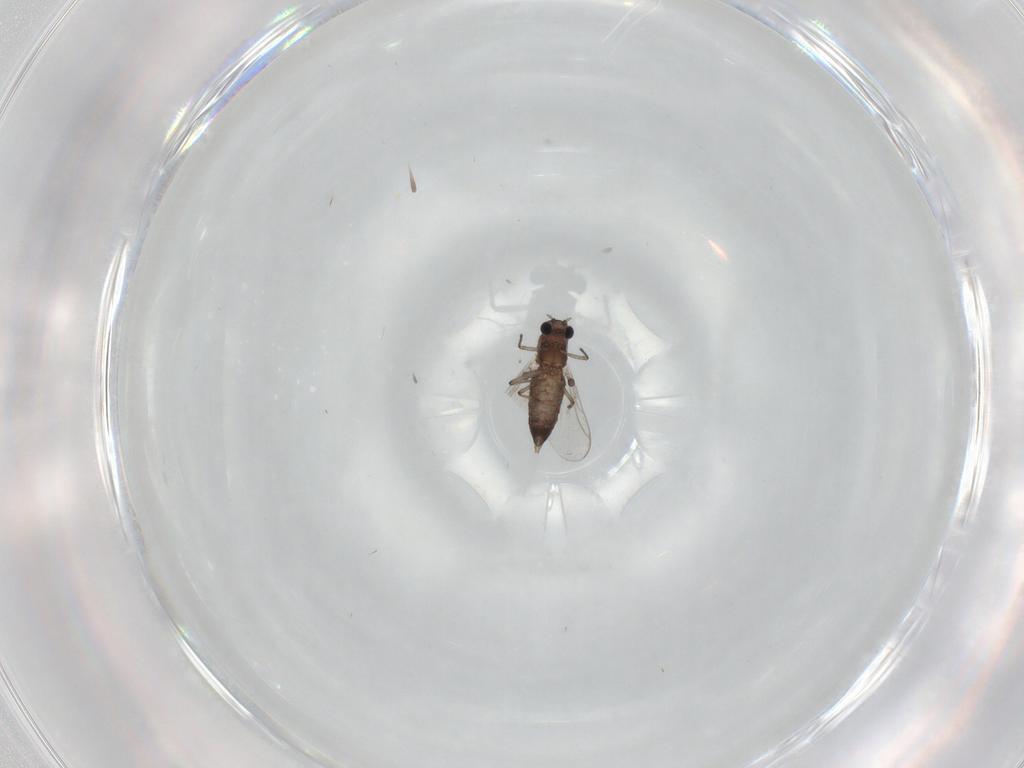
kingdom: Animalia
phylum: Arthropoda
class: Insecta
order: Diptera
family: Chironomidae
